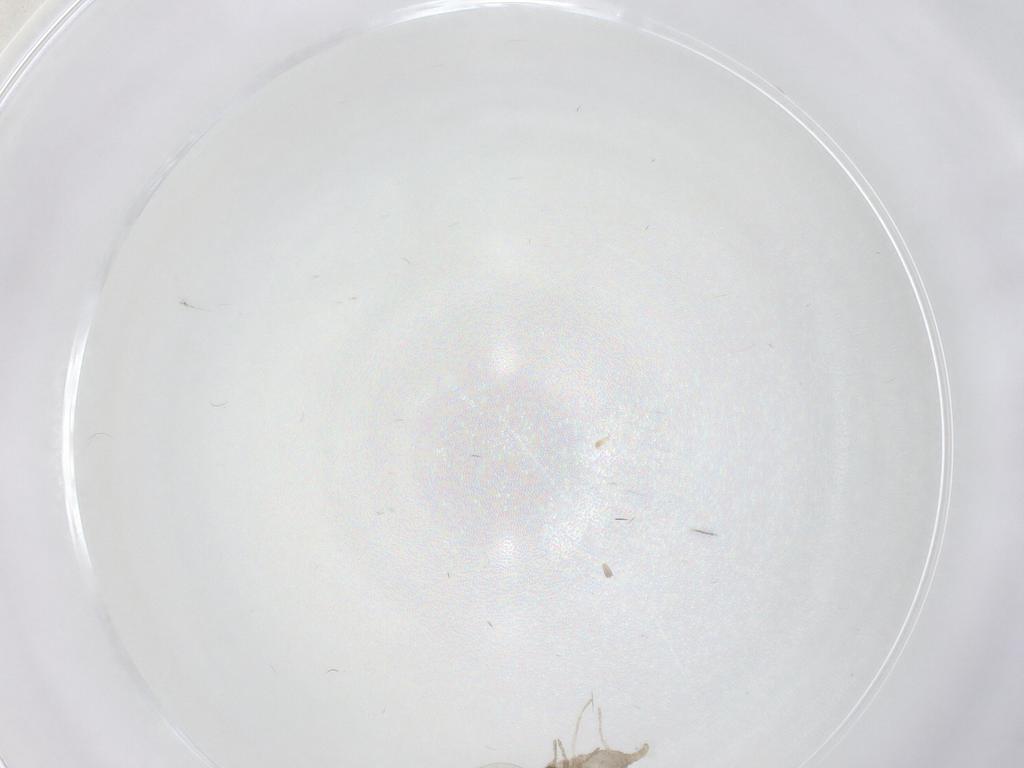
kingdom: Animalia
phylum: Arthropoda
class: Insecta
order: Diptera
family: Cecidomyiidae
